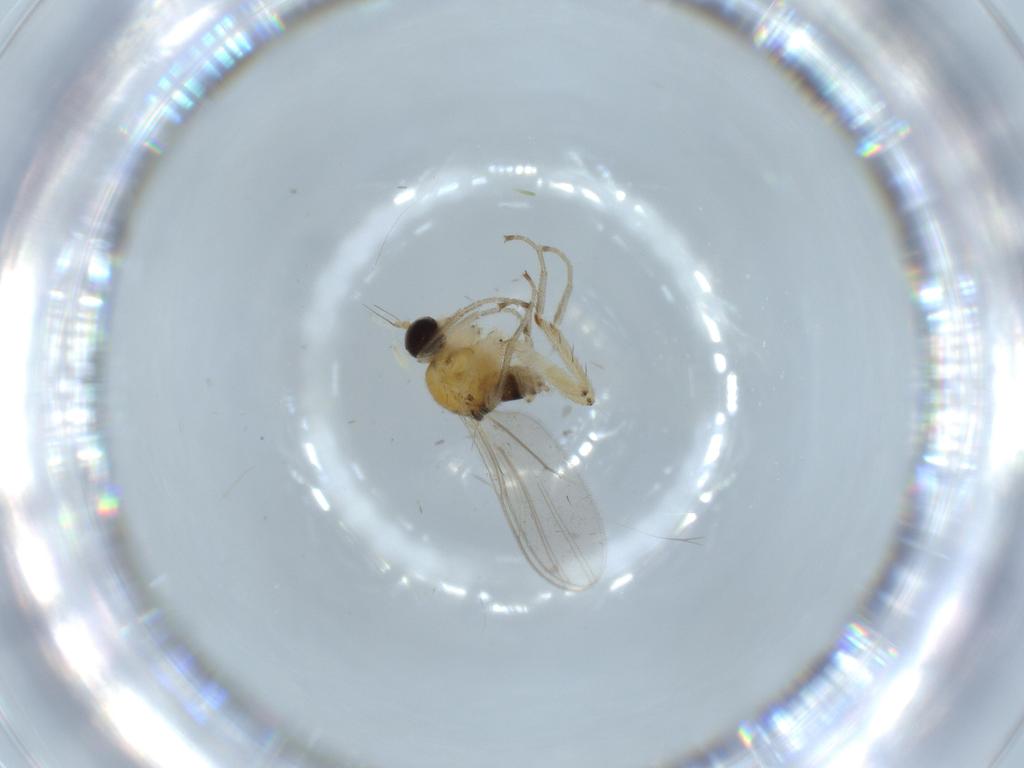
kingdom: Animalia
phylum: Arthropoda
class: Insecta
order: Diptera
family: Hybotidae
